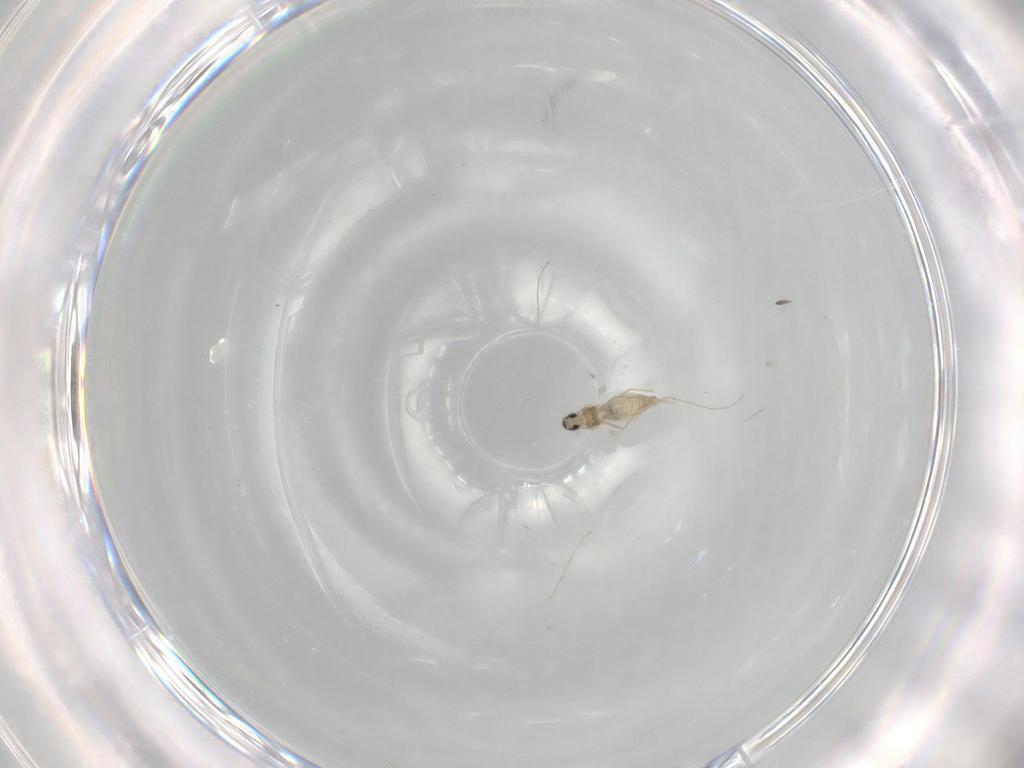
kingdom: Animalia
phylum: Arthropoda
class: Insecta
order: Diptera
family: Cecidomyiidae
